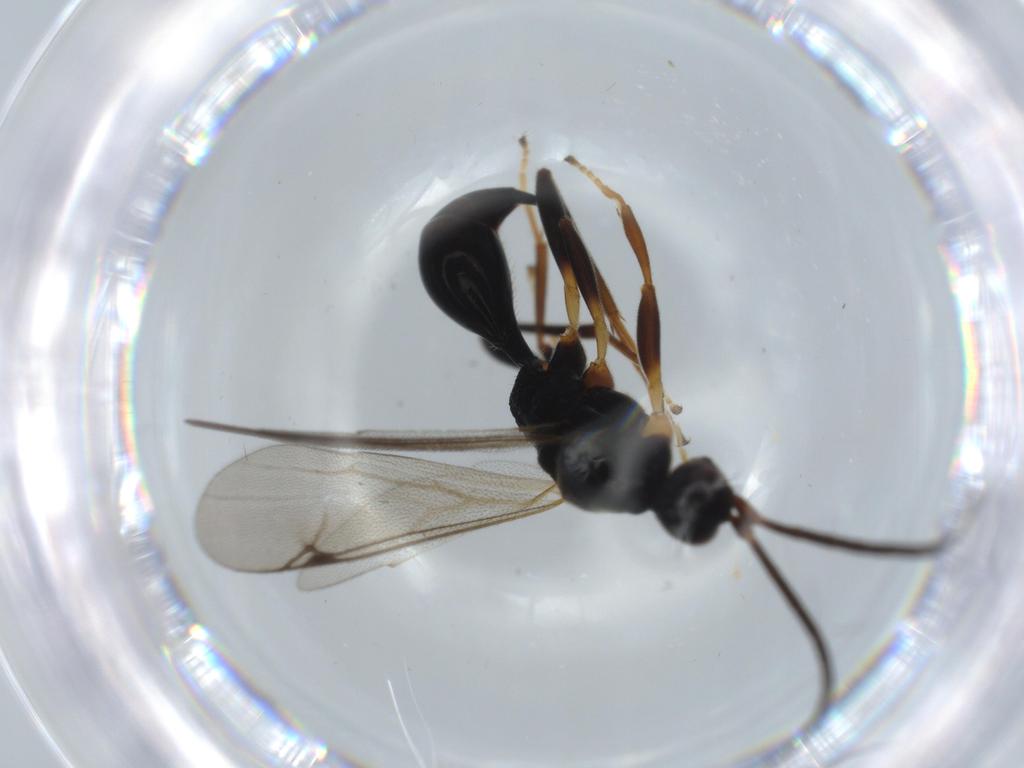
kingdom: Animalia
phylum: Arthropoda
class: Insecta
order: Hymenoptera
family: Proctotrupidae
